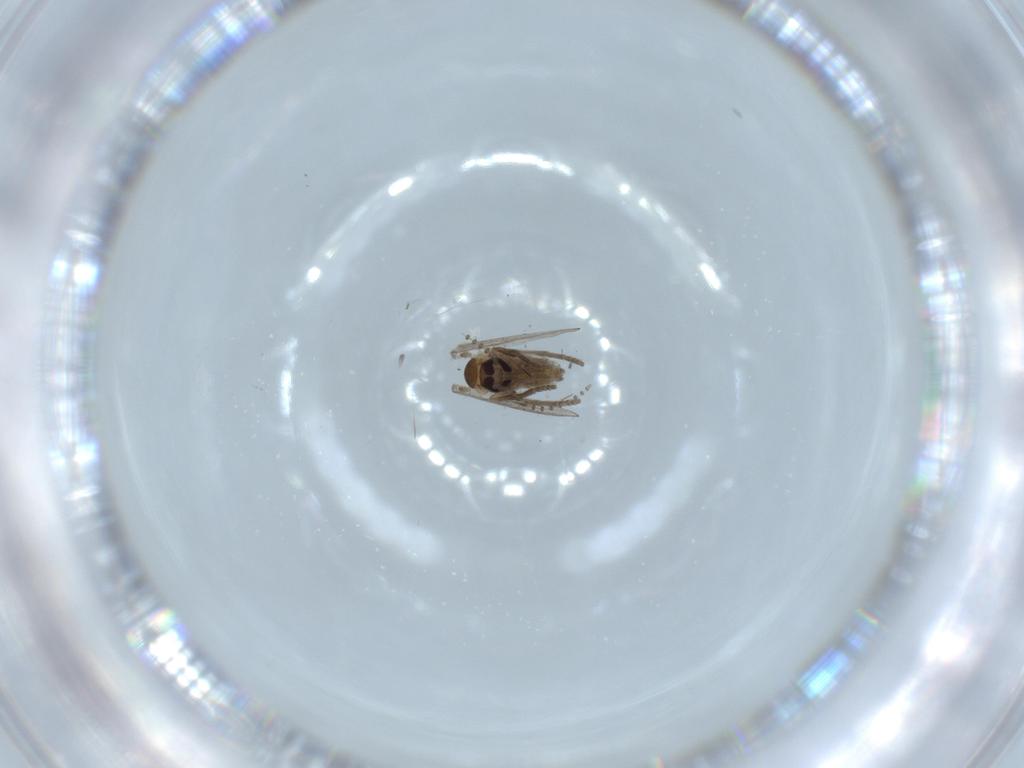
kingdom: Animalia
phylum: Arthropoda
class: Insecta
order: Diptera
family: Psychodidae
